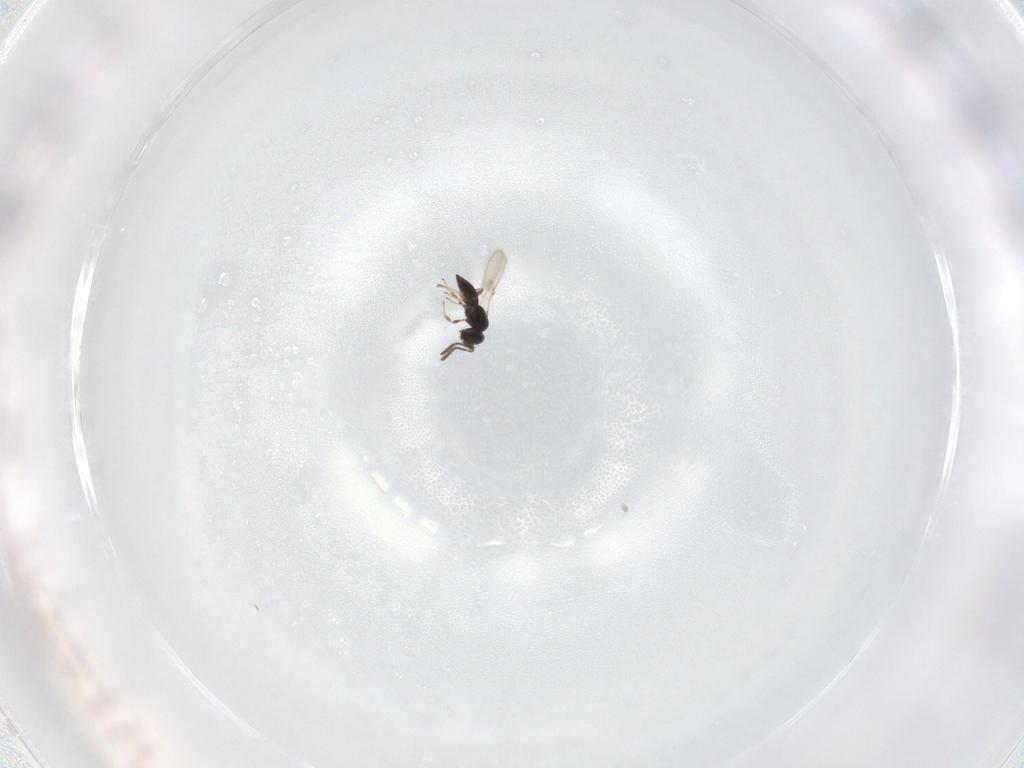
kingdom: Animalia
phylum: Arthropoda
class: Insecta
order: Hymenoptera
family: Scelionidae
